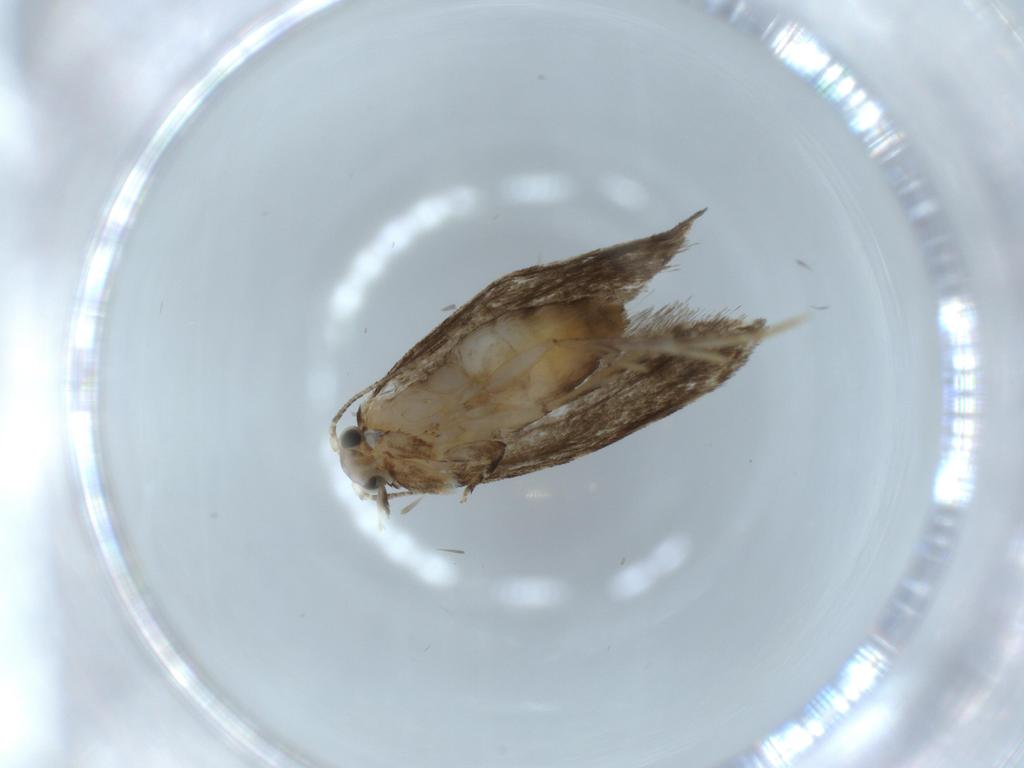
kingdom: Animalia
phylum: Arthropoda
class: Insecta
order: Lepidoptera
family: Tineidae
